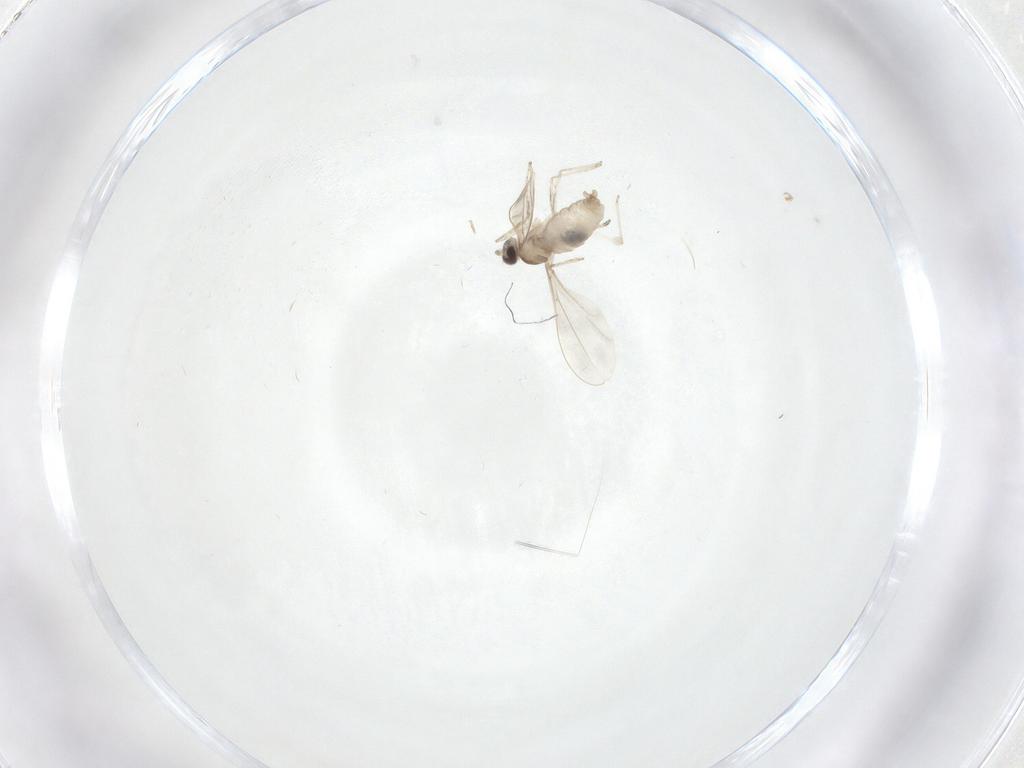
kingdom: Animalia
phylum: Arthropoda
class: Insecta
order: Diptera
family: Cecidomyiidae
